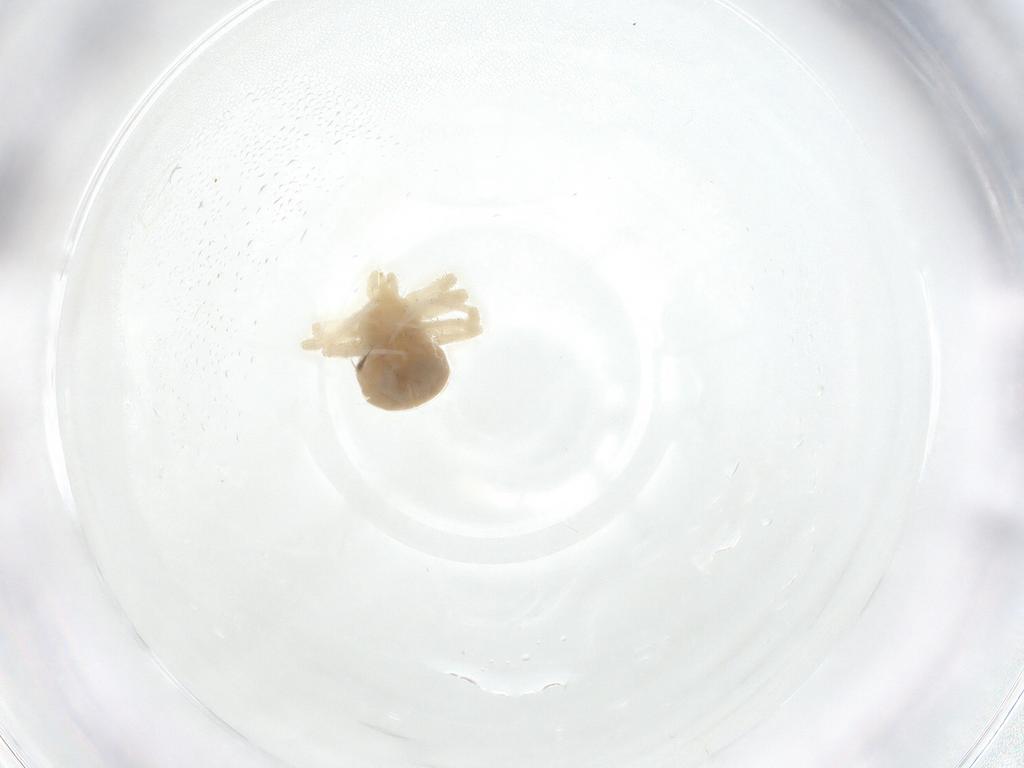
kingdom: Animalia
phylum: Arthropoda
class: Arachnida
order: Trombidiformes
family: Anystidae
